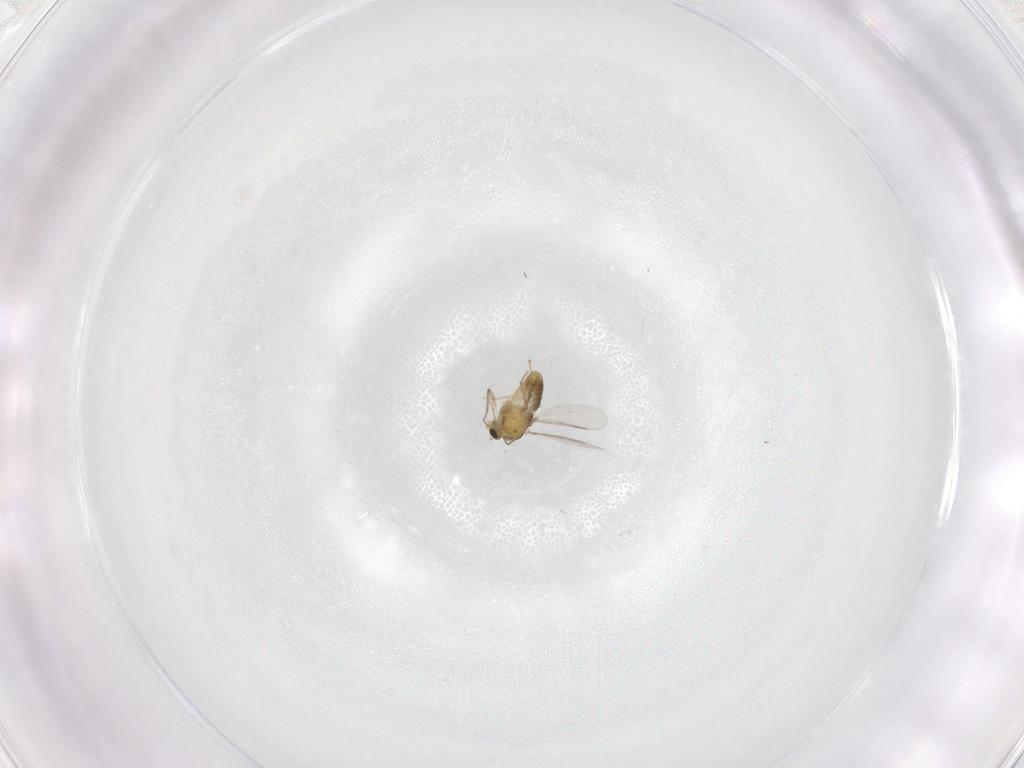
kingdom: Animalia
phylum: Arthropoda
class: Insecta
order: Diptera
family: Chironomidae
